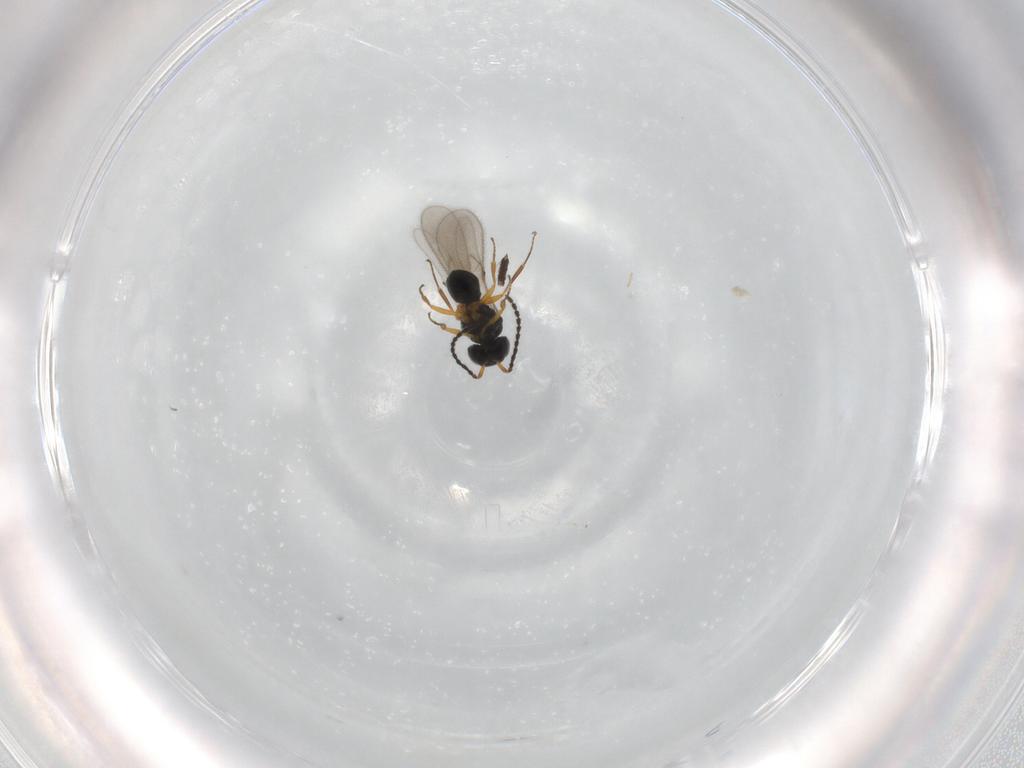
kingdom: Animalia
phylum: Arthropoda
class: Insecta
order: Hymenoptera
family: Scelionidae
